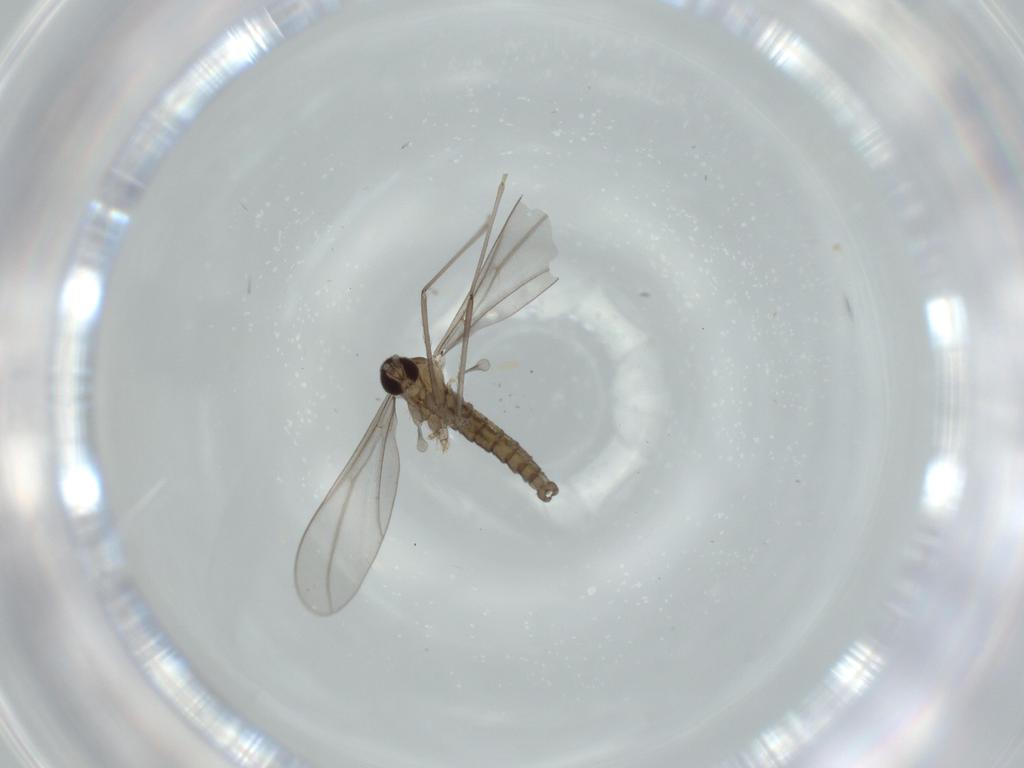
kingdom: Animalia
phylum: Arthropoda
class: Insecta
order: Diptera
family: Cecidomyiidae
